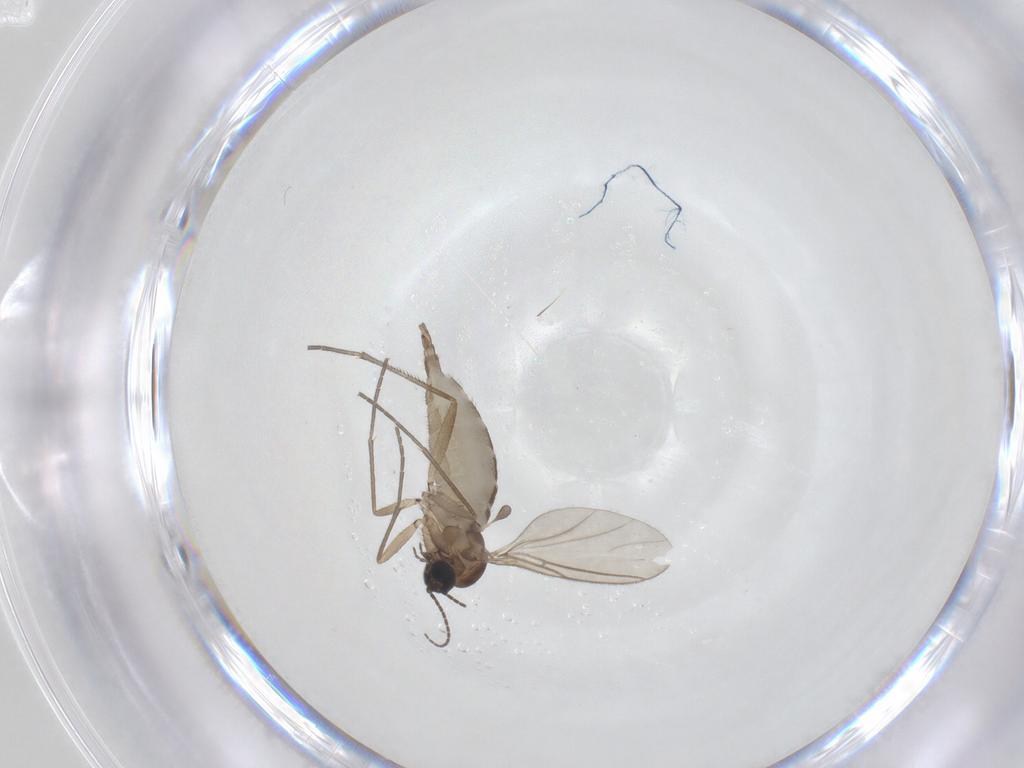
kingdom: Animalia
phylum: Arthropoda
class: Insecta
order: Diptera
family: Sciaridae
